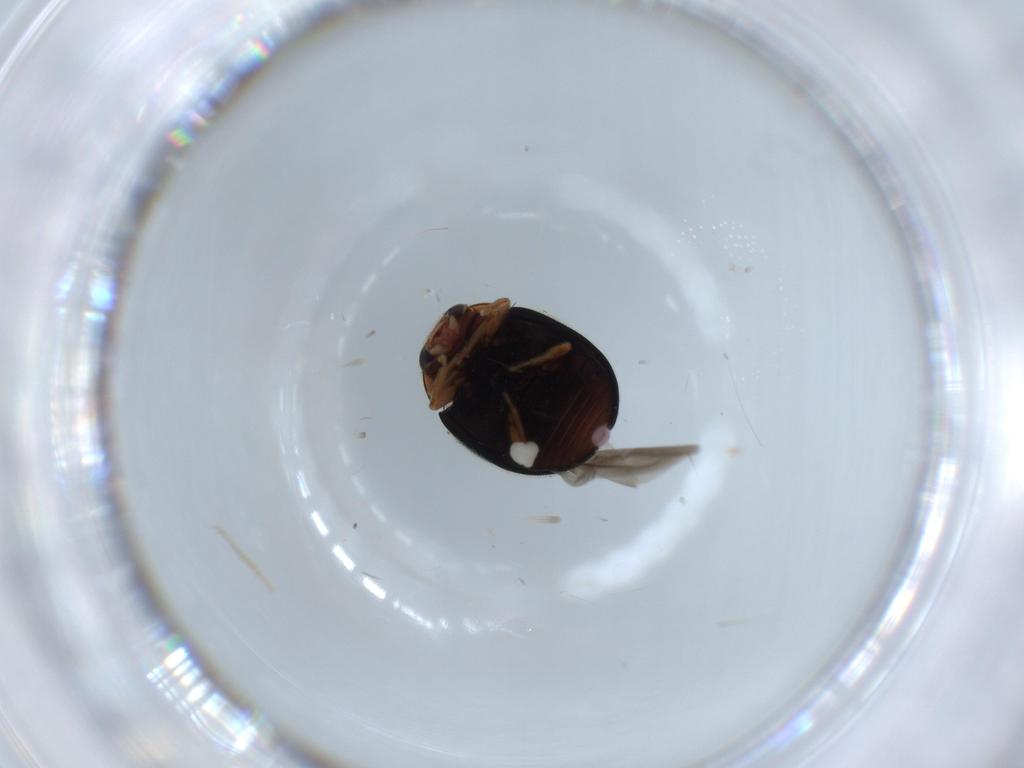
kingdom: Animalia
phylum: Arthropoda
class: Insecta
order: Coleoptera
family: Coccinellidae
